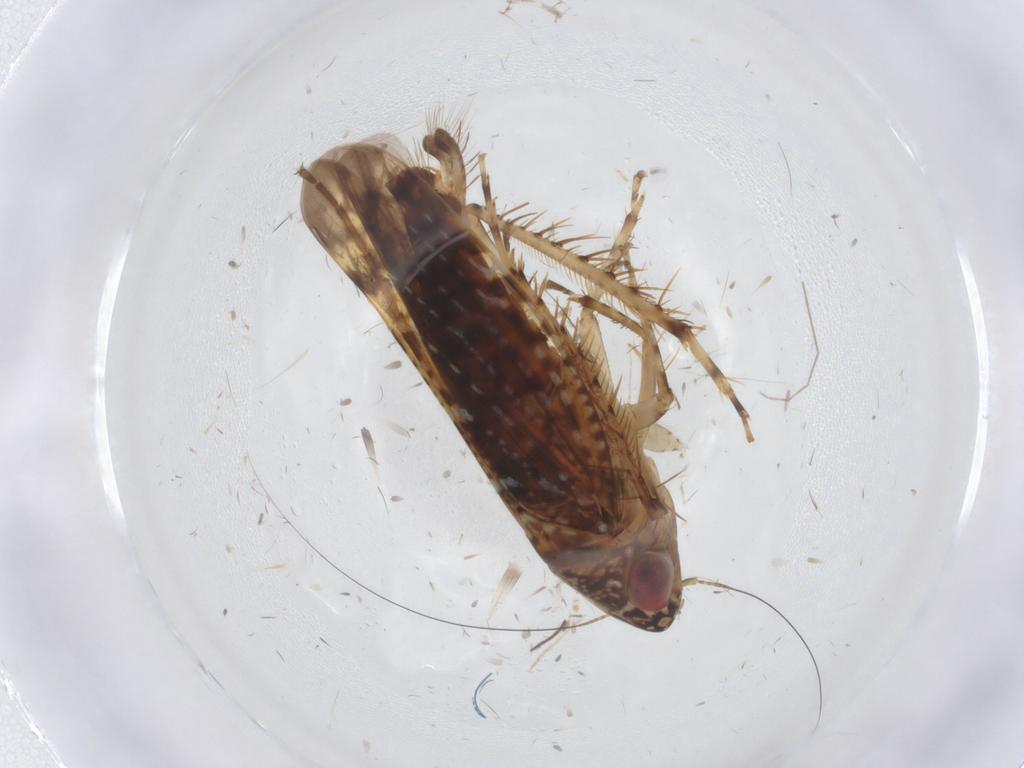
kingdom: Animalia
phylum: Arthropoda
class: Insecta
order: Hemiptera
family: Cicadellidae
